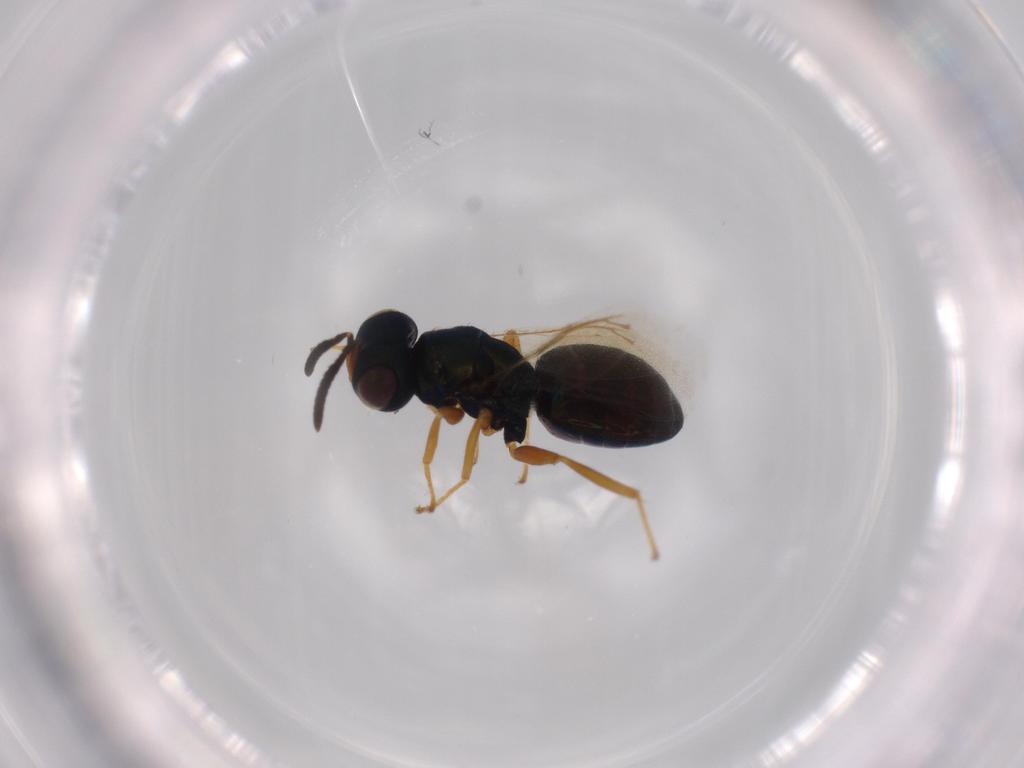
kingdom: Animalia
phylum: Arthropoda
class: Insecta
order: Hymenoptera
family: Pteromalidae
